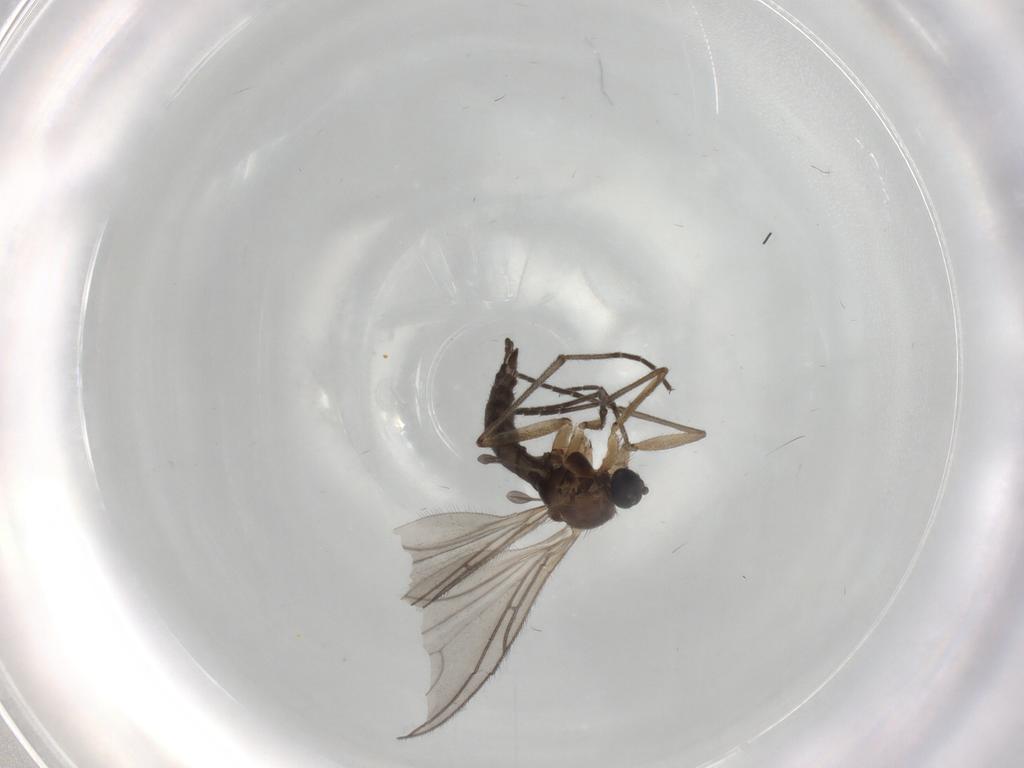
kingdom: Animalia
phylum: Arthropoda
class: Insecta
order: Diptera
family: Sciaridae
